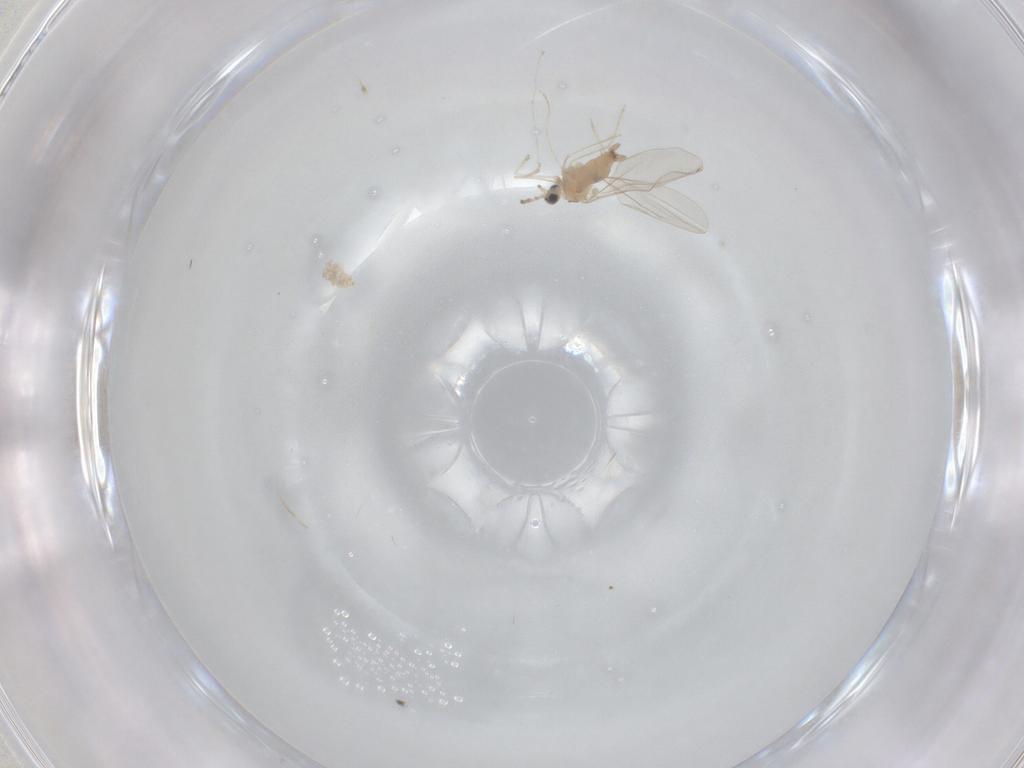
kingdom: Animalia
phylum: Arthropoda
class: Insecta
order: Diptera
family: Cecidomyiidae
